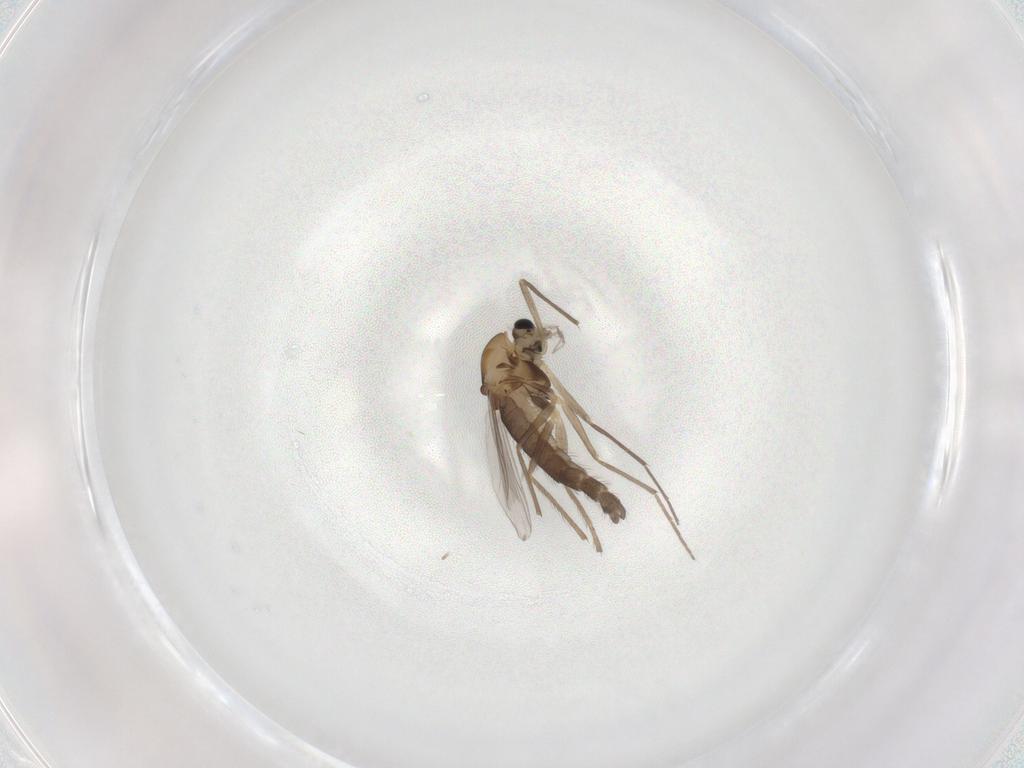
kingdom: Animalia
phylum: Arthropoda
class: Insecta
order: Diptera
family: Chironomidae
